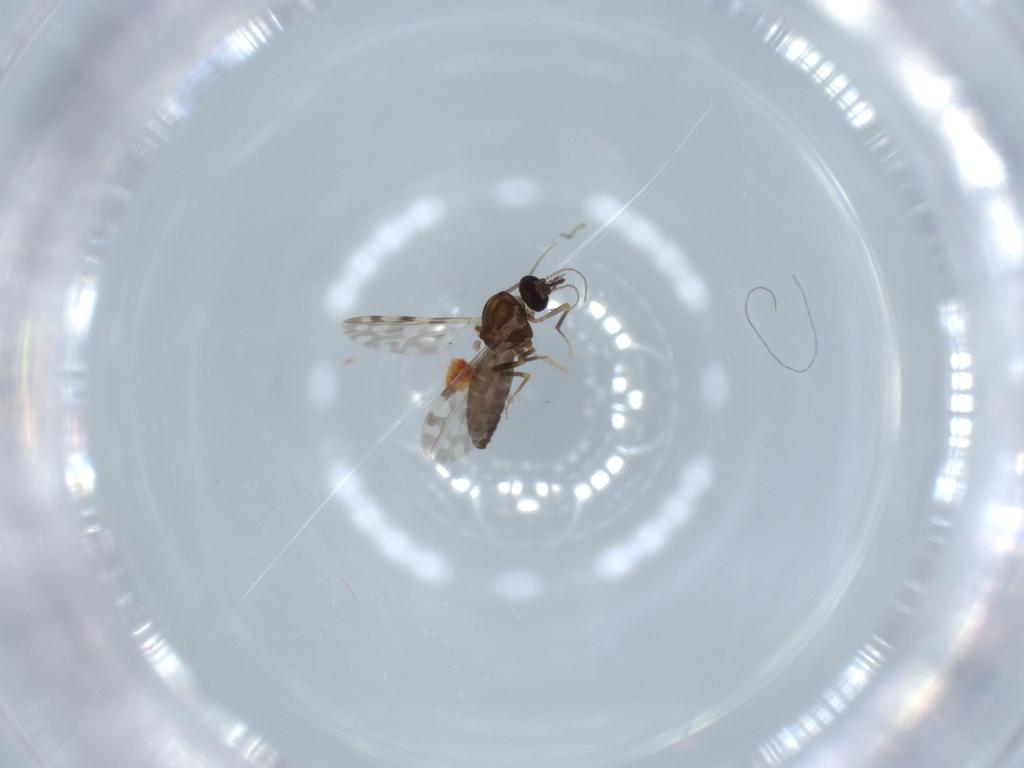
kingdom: Animalia
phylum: Arthropoda
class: Insecta
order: Diptera
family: Ceratopogonidae
